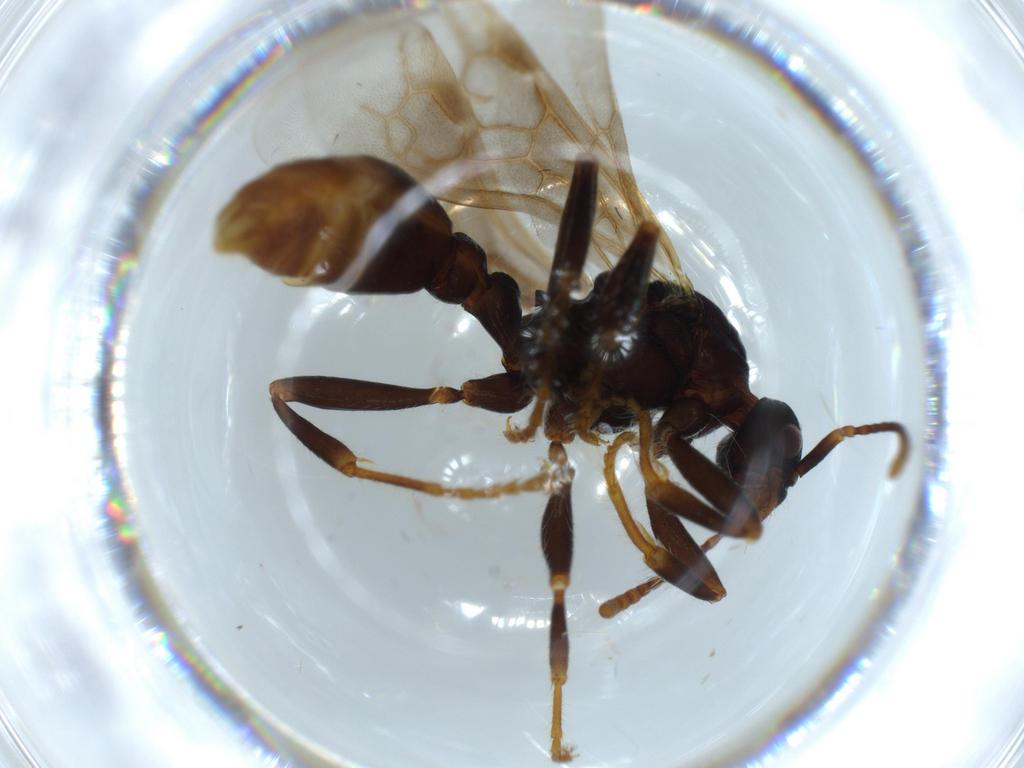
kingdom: Animalia
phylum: Arthropoda
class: Insecta
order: Hymenoptera
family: Formicidae
